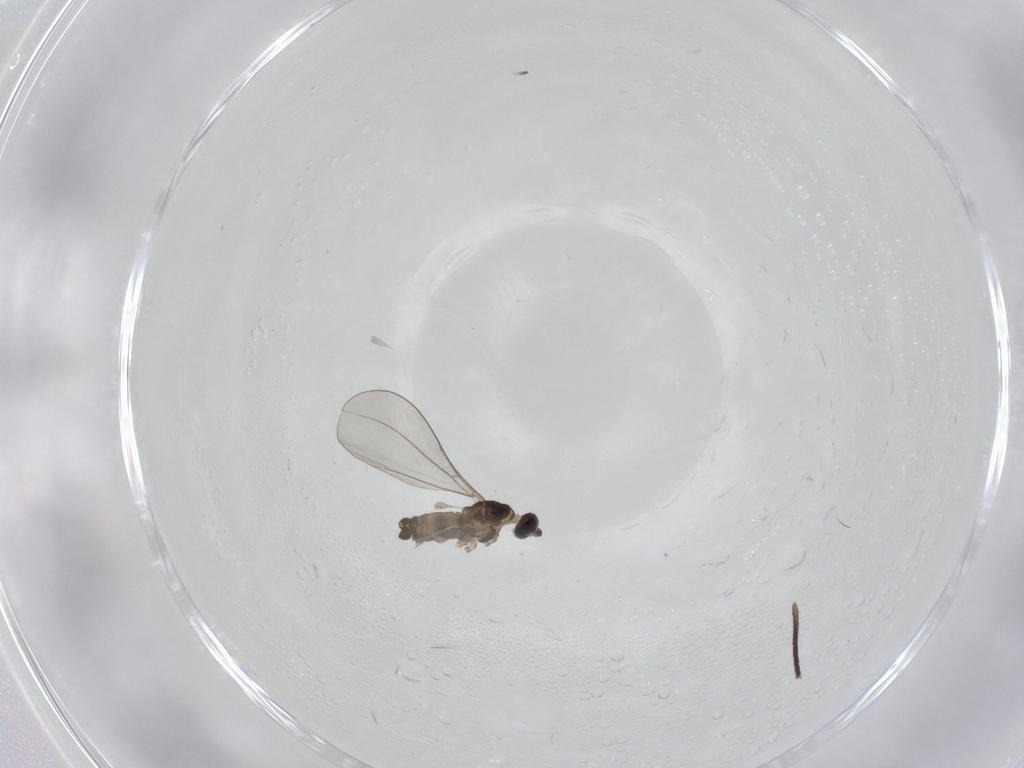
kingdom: Animalia
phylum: Arthropoda
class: Insecta
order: Diptera
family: Cecidomyiidae
